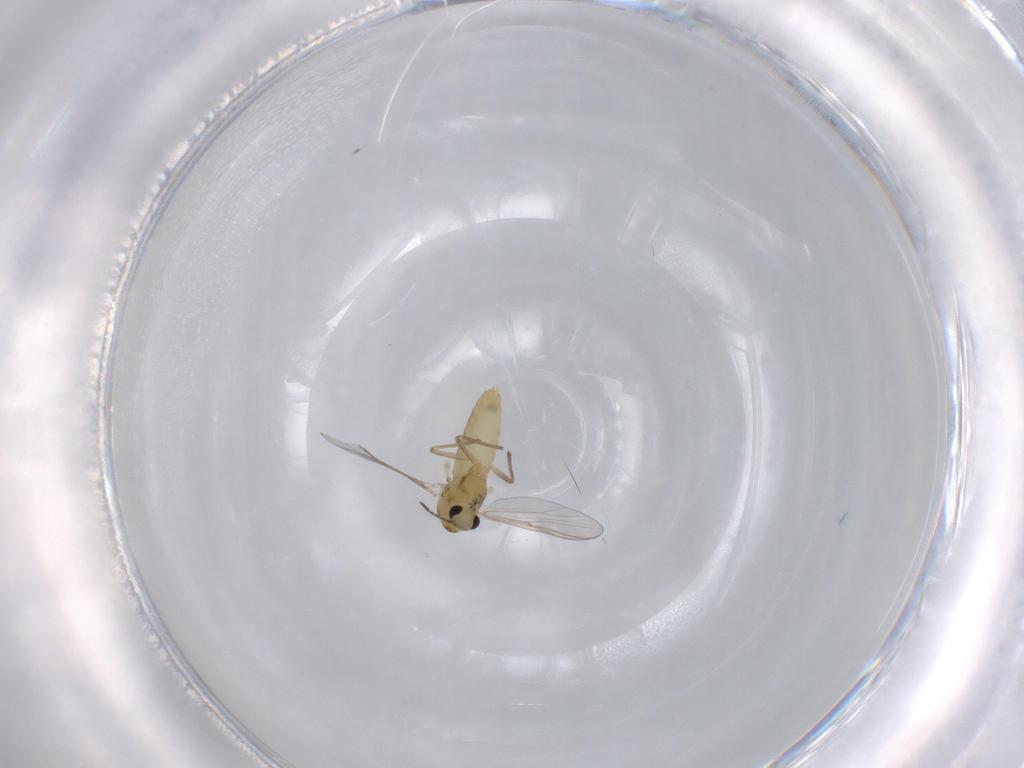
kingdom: Animalia
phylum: Arthropoda
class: Insecta
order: Diptera
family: Chironomidae
